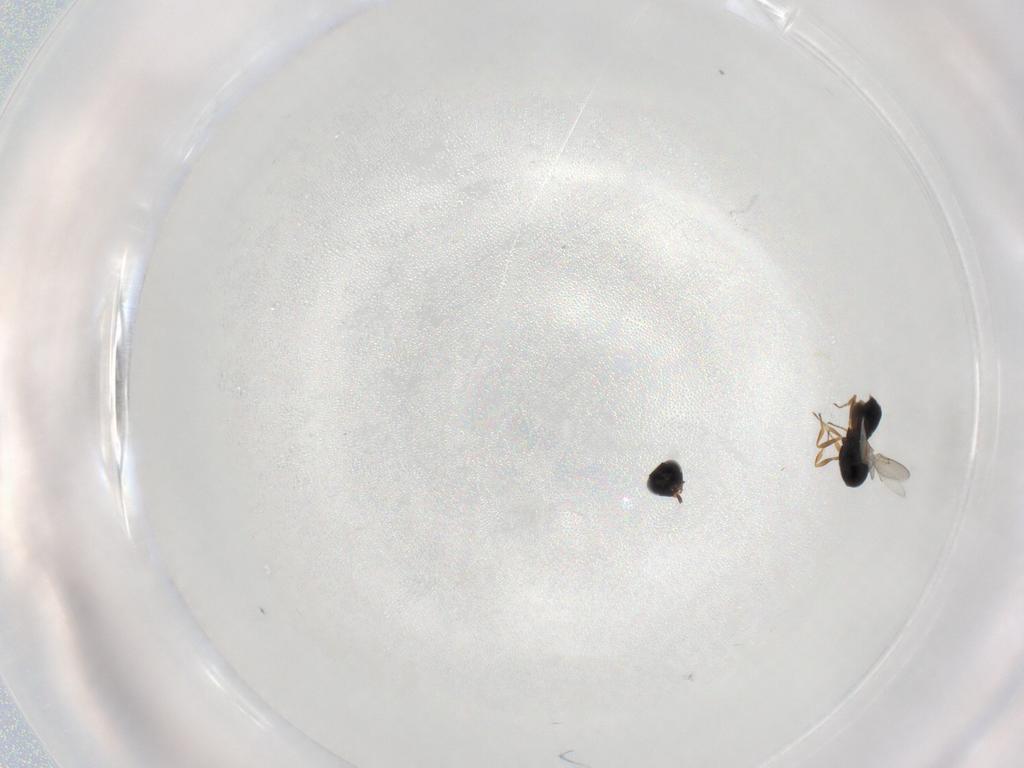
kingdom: Animalia
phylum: Arthropoda
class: Insecta
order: Hymenoptera
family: Scelionidae
